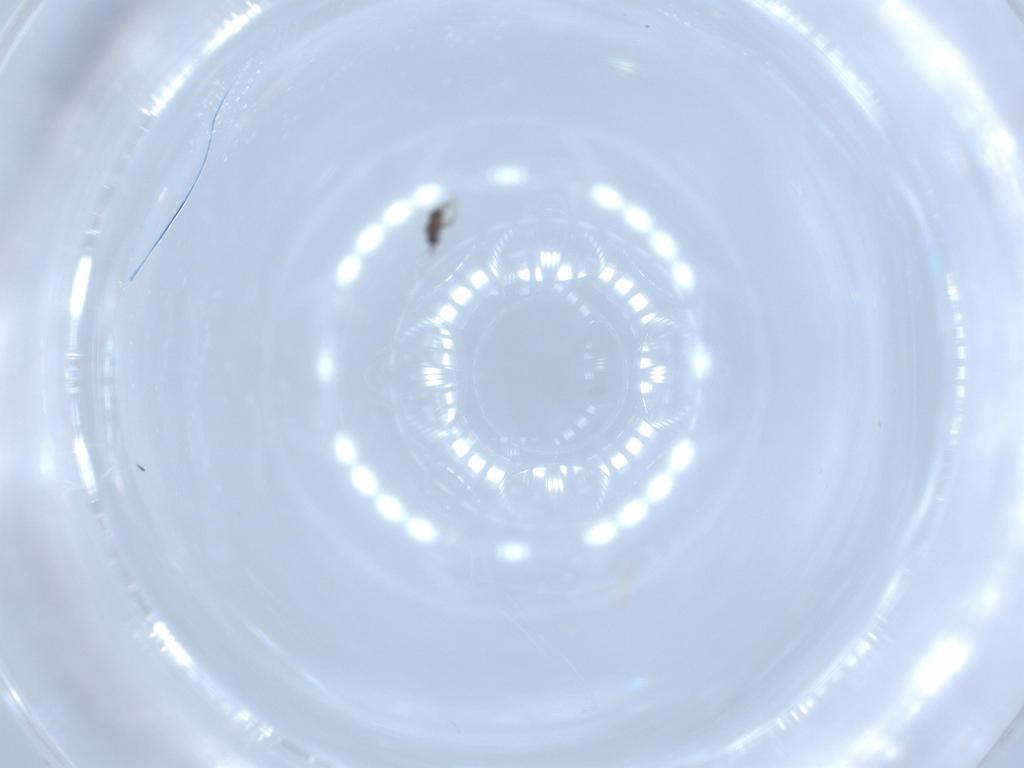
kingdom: Animalia
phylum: Arthropoda
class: Insecta
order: Hymenoptera
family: Mymaridae
